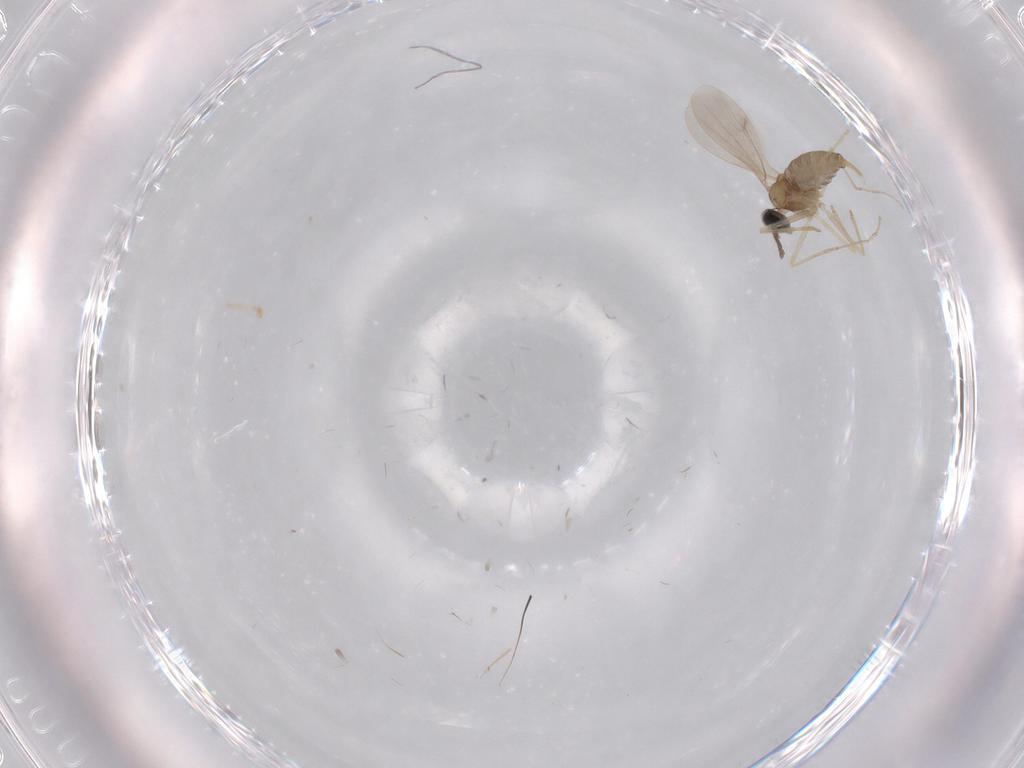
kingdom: Animalia
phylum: Arthropoda
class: Insecta
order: Diptera
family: Cecidomyiidae
